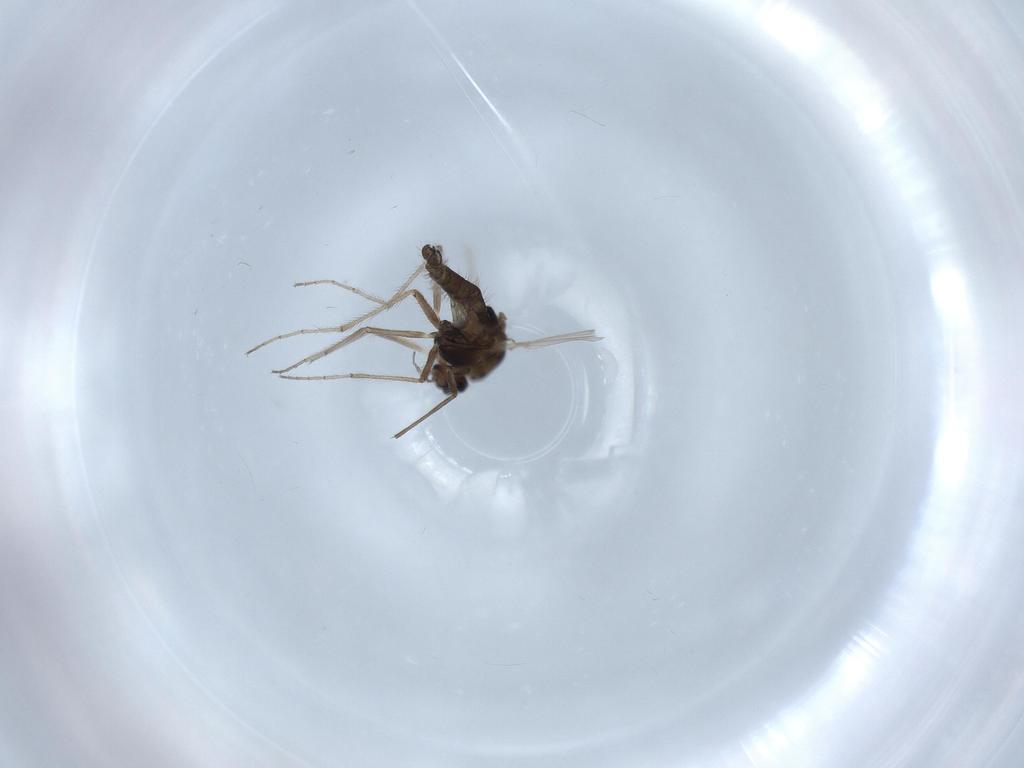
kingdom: Animalia
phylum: Arthropoda
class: Insecta
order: Diptera
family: Chironomidae
